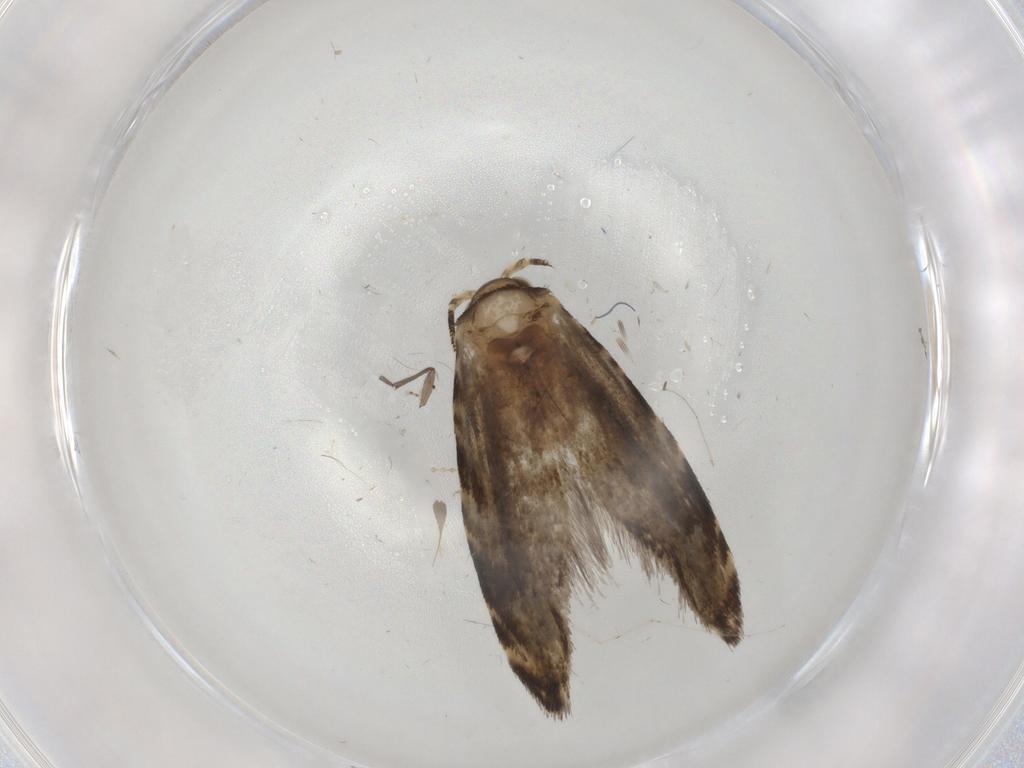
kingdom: Animalia
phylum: Arthropoda
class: Insecta
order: Lepidoptera
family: Tineidae
